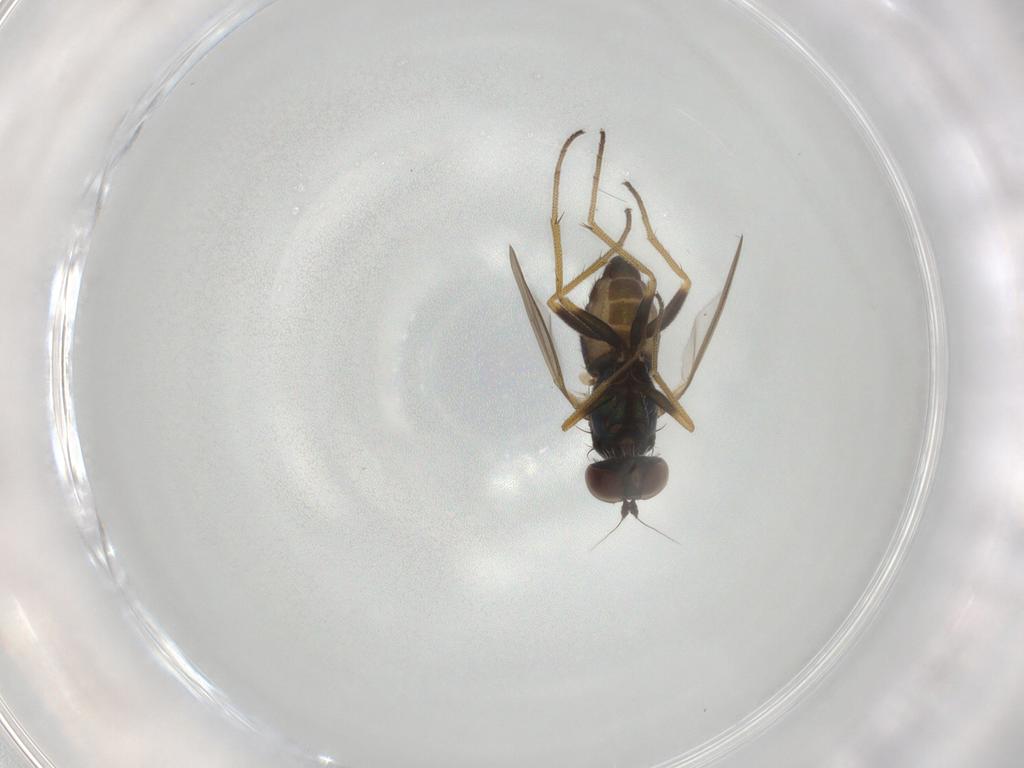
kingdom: Animalia
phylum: Arthropoda
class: Insecta
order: Diptera
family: Dolichopodidae
